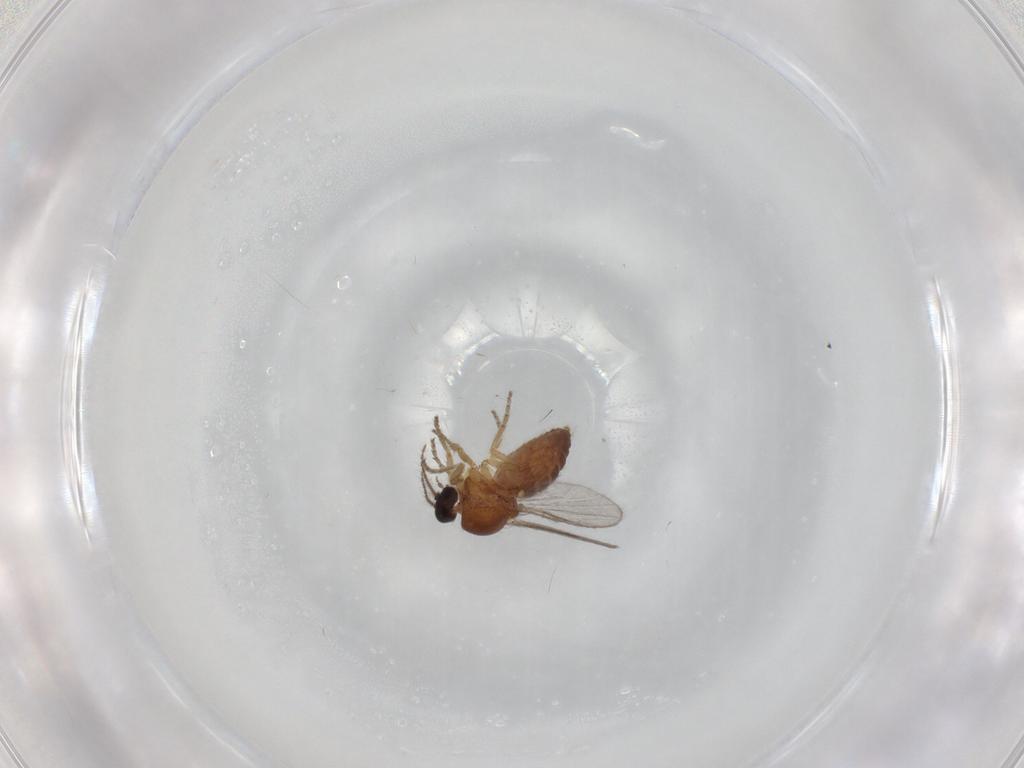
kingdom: Animalia
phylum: Arthropoda
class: Insecta
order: Diptera
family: Ceratopogonidae
